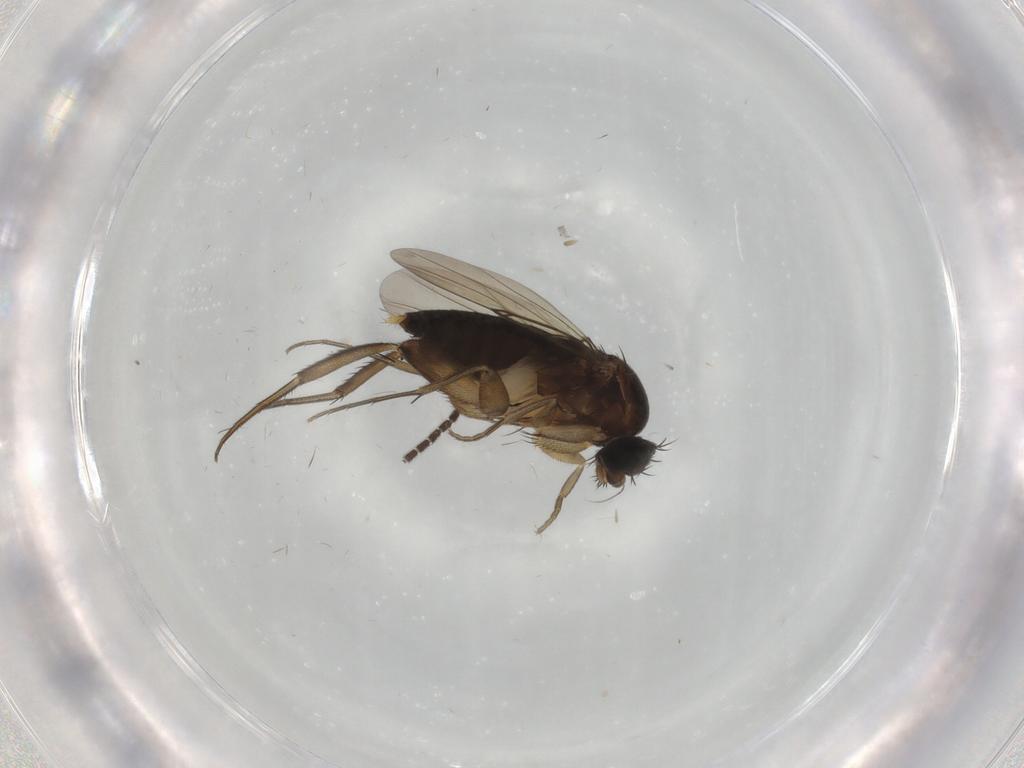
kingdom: Animalia
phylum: Arthropoda
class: Insecta
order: Diptera
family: Phoridae
